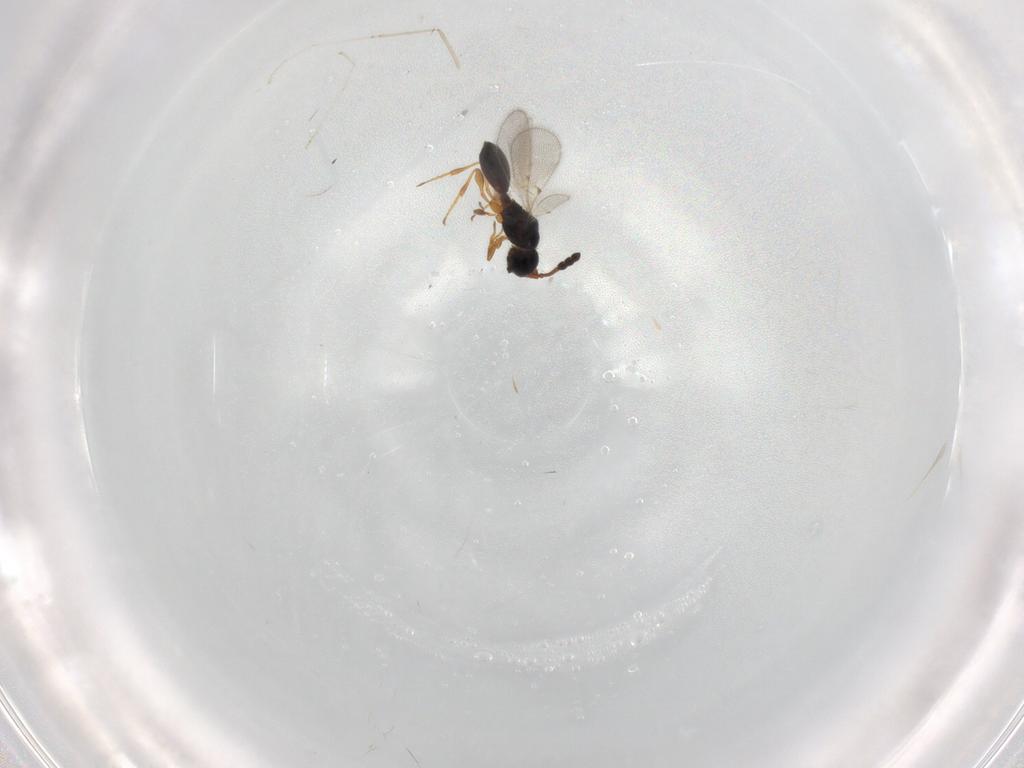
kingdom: Animalia
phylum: Arthropoda
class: Insecta
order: Hymenoptera
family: Diapriidae
